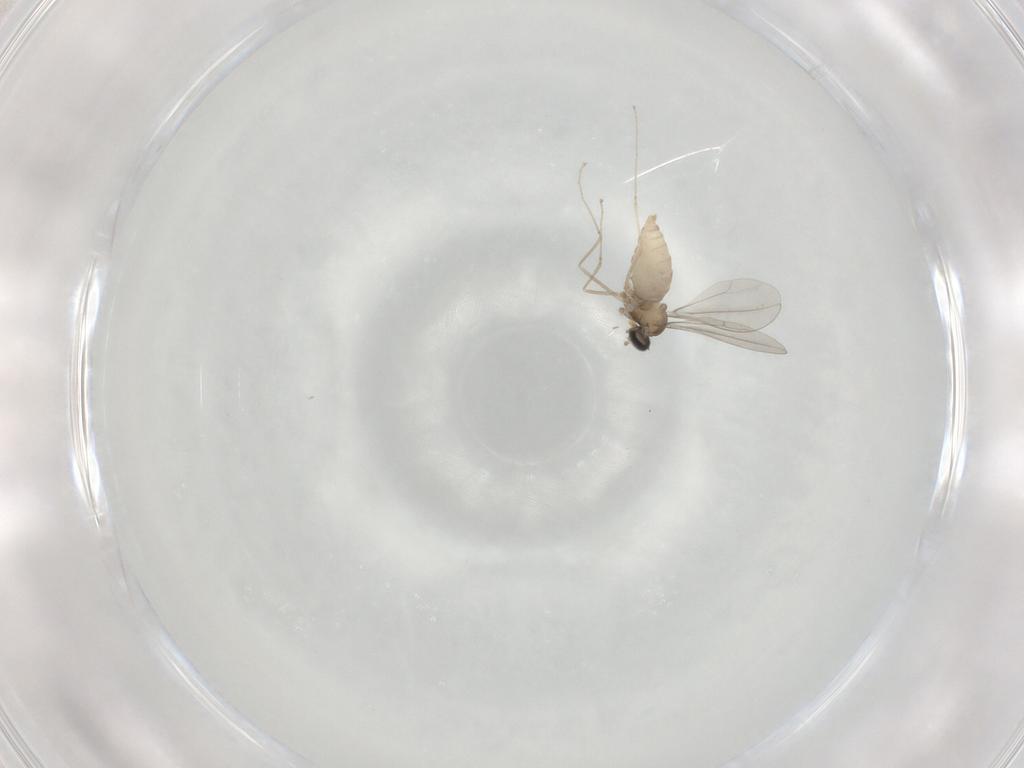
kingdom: Animalia
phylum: Arthropoda
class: Insecta
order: Diptera
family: Cecidomyiidae
